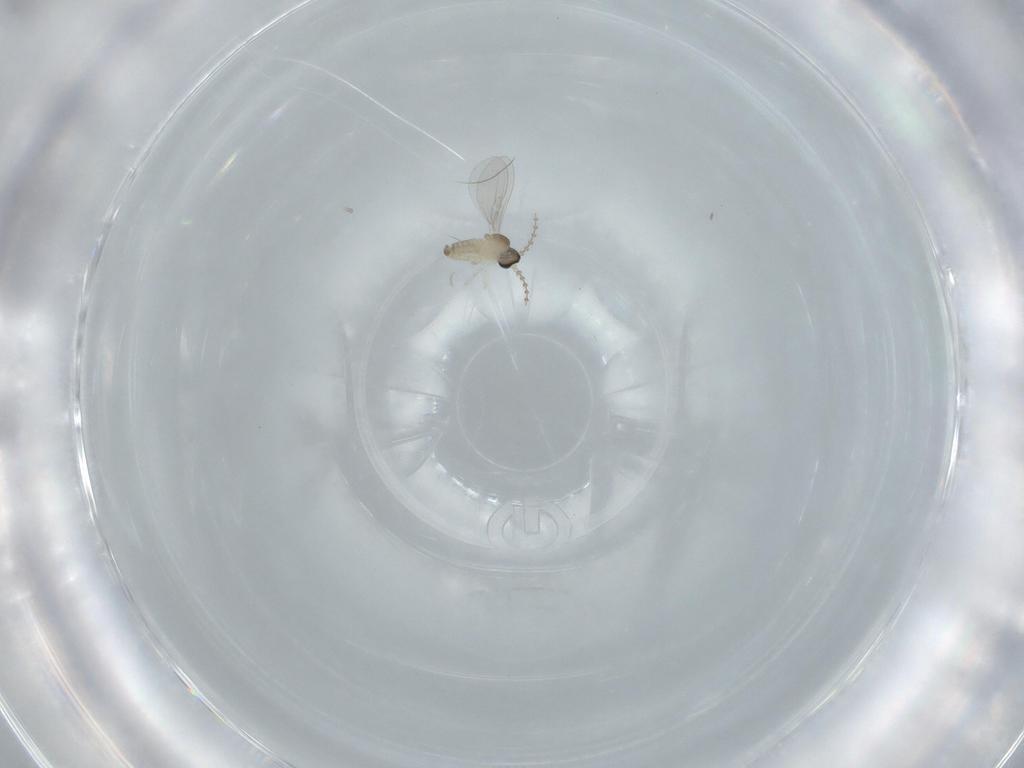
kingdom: Animalia
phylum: Arthropoda
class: Insecta
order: Diptera
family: Cecidomyiidae
